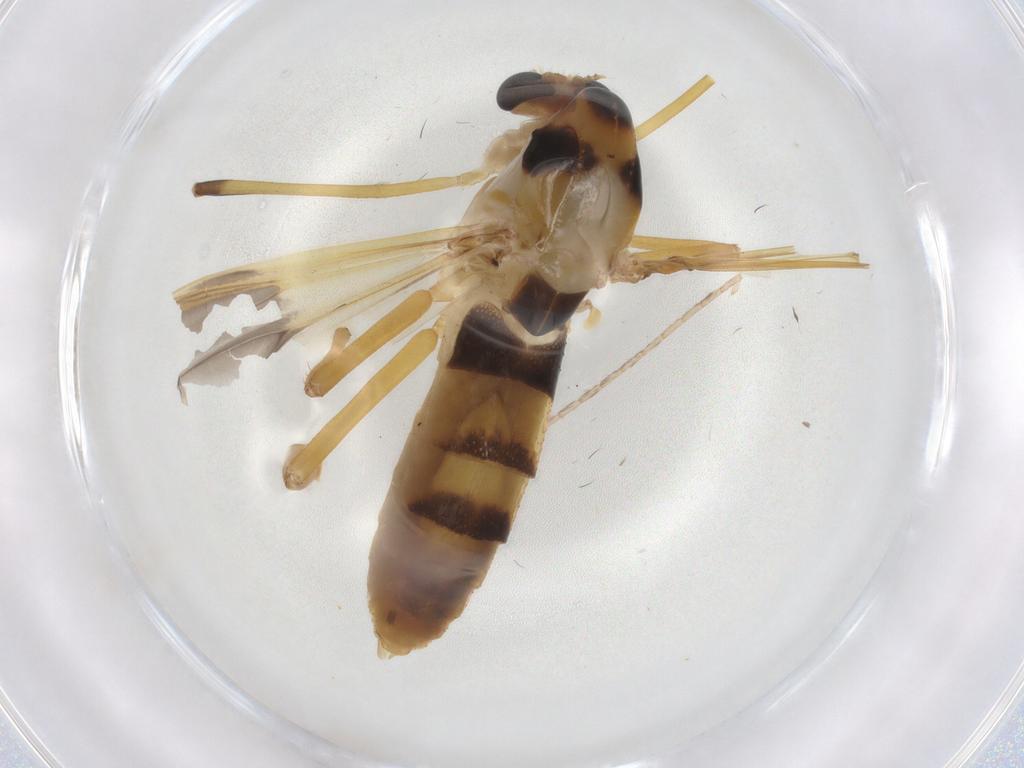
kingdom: Animalia
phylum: Arthropoda
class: Insecta
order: Diptera
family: Chironomidae
